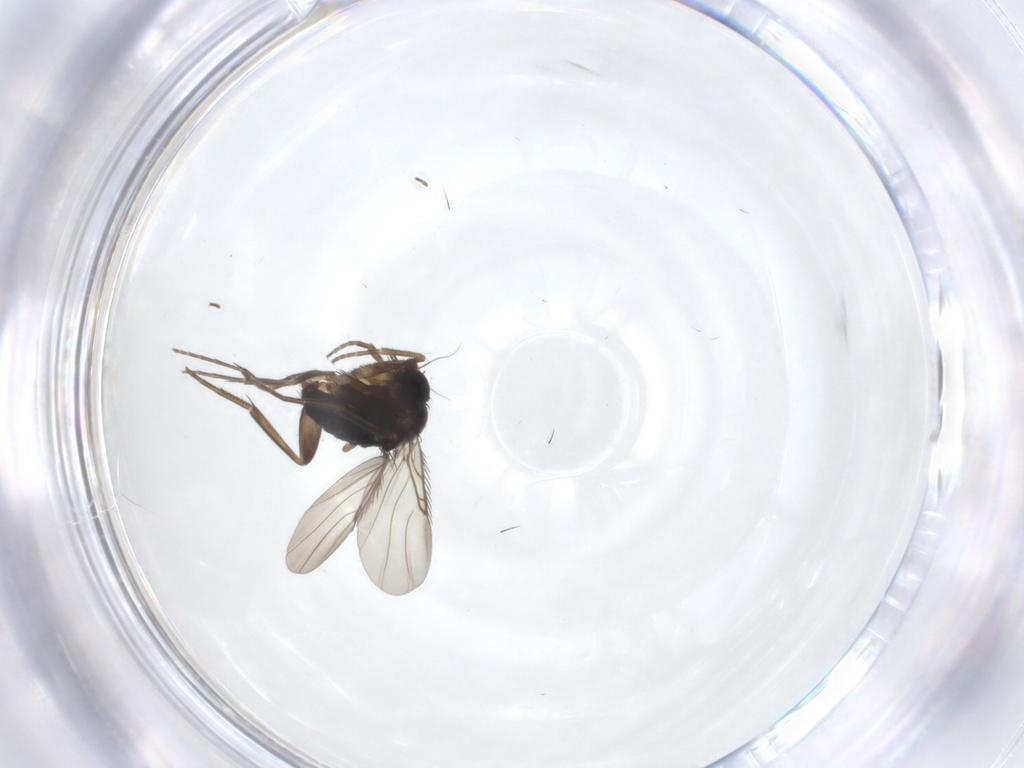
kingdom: Animalia
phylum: Arthropoda
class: Insecta
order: Diptera
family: Phoridae
